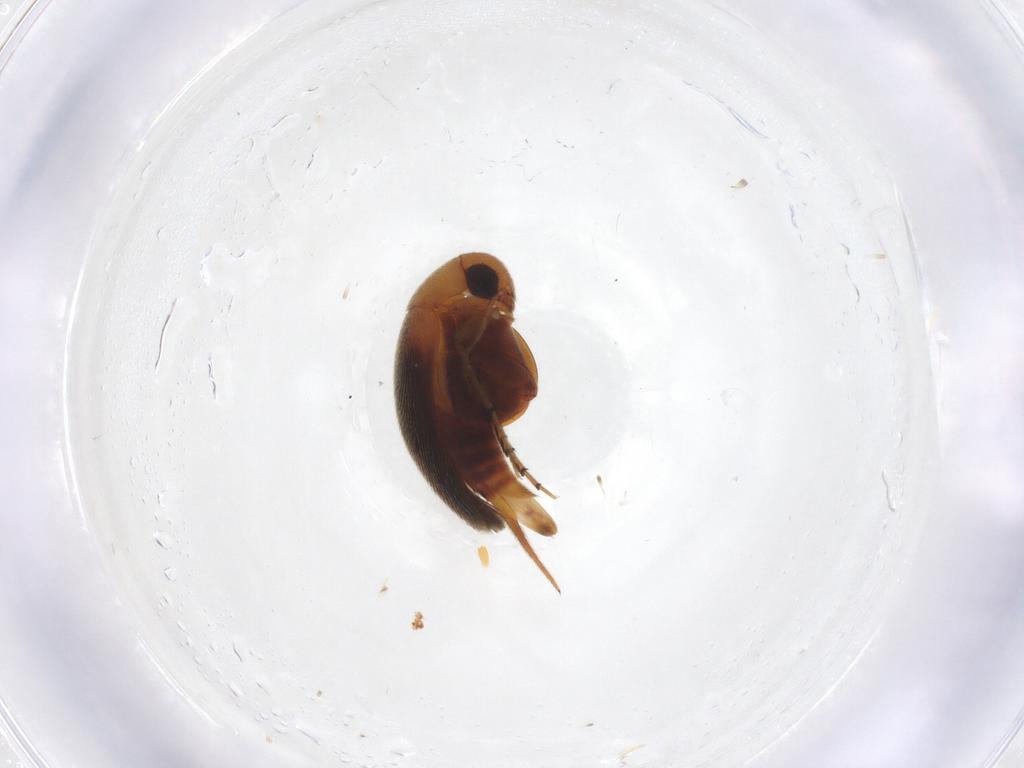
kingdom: Animalia
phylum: Arthropoda
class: Insecta
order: Coleoptera
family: Mordellidae
